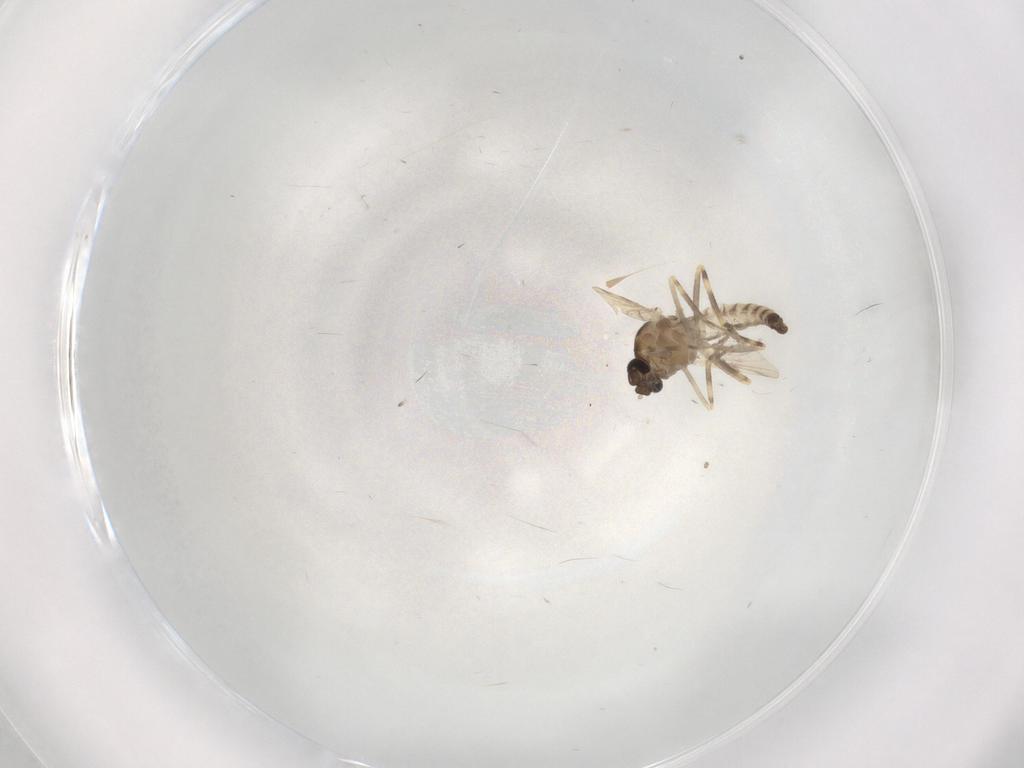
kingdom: Animalia
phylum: Arthropoda
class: Insecta
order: Diptera
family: Ceratopogonidae
